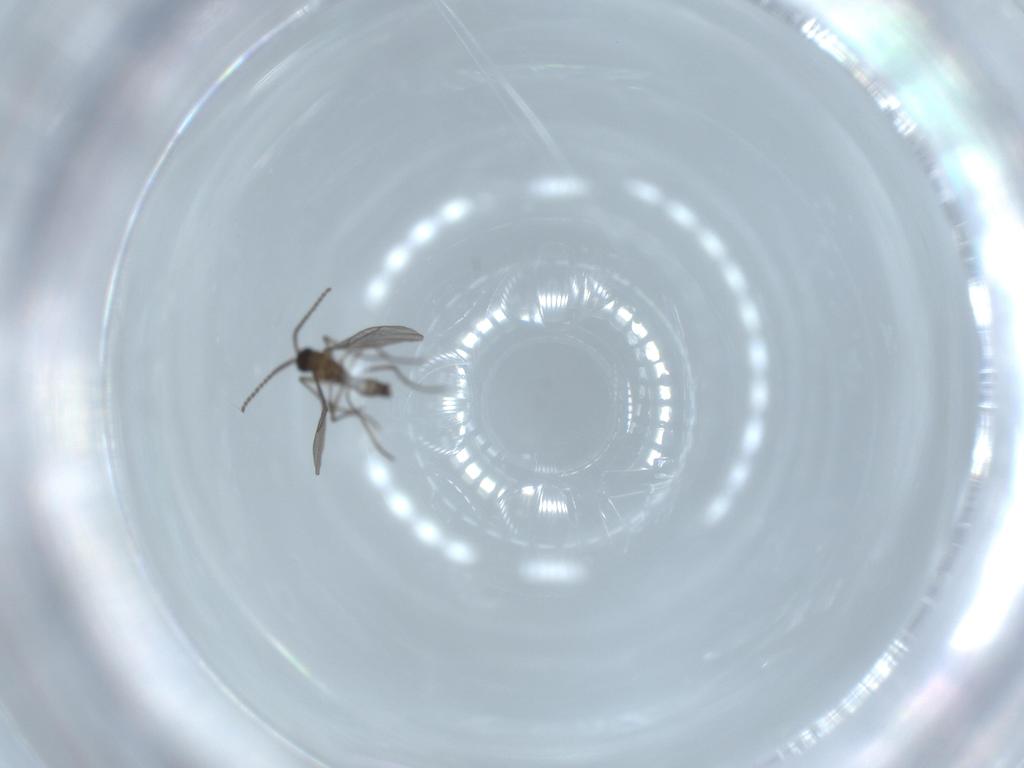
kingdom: Animalia
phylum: Arthropoda
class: Insecta
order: Diptera
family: Sciaridae
